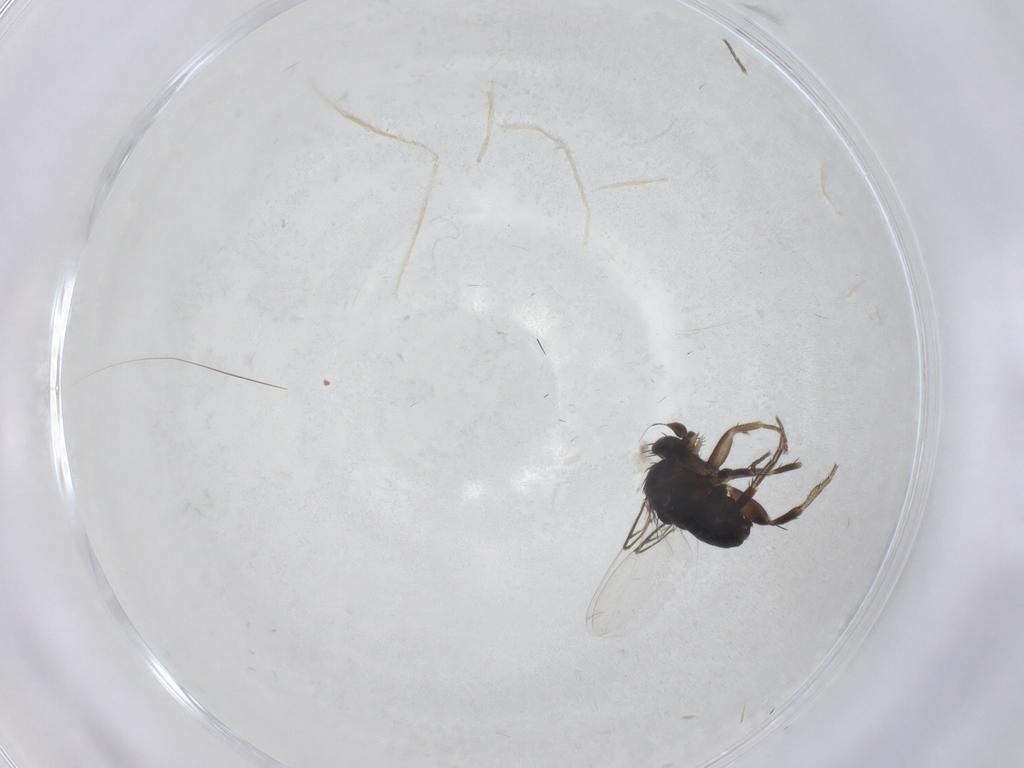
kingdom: Animalia
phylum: Arthropoda
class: Insecta
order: Diptera
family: Phoridae
